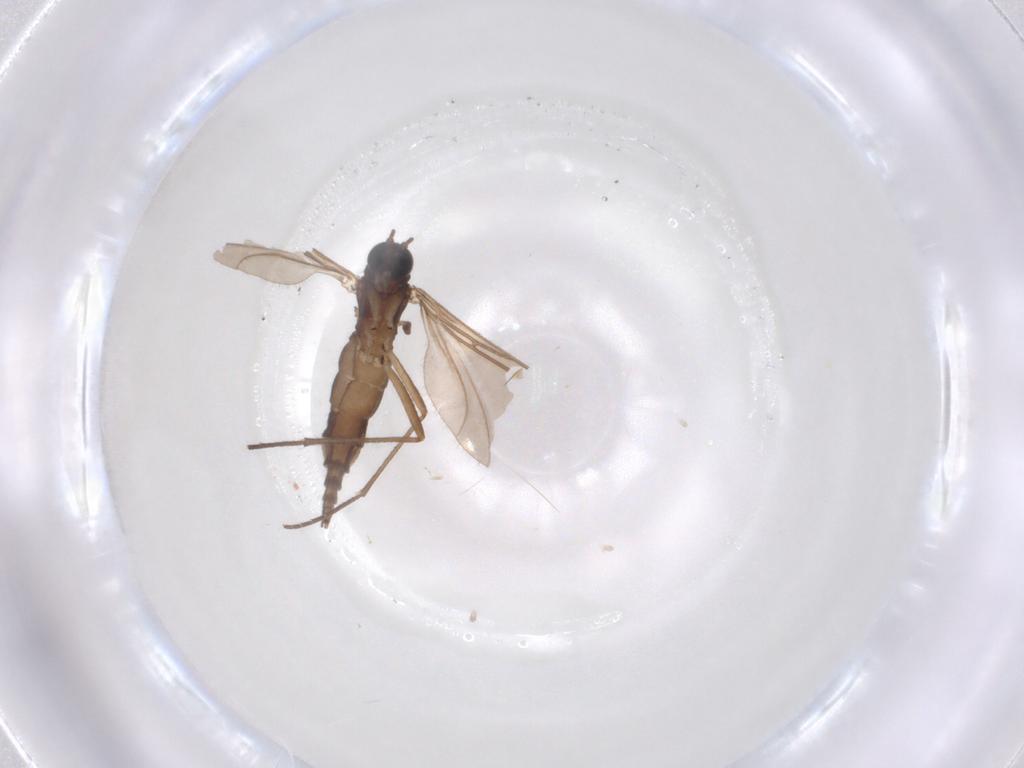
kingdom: Animalia
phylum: Arthropoda
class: Insecta
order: Diptera
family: Sciaridae
